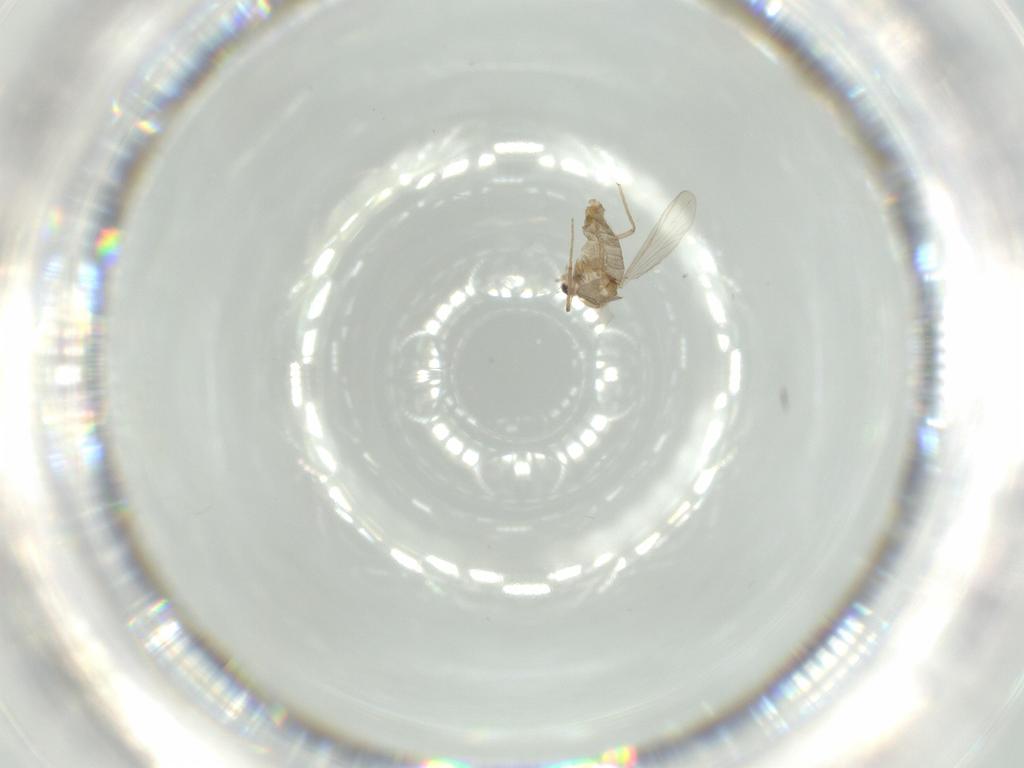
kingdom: Animalia
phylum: Arthropoda
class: Insecta
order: Diptera
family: Chironomidae
